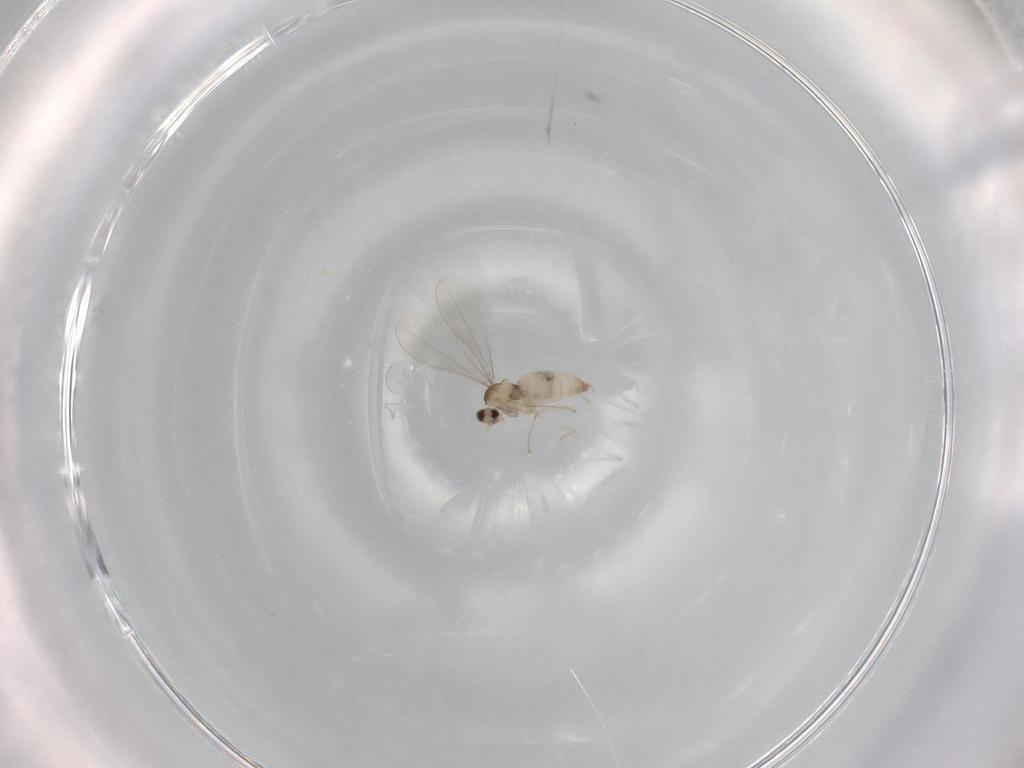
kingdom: Animalia
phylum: Arthropoda
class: Insecta
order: Diptera
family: Cecidomyiidae
